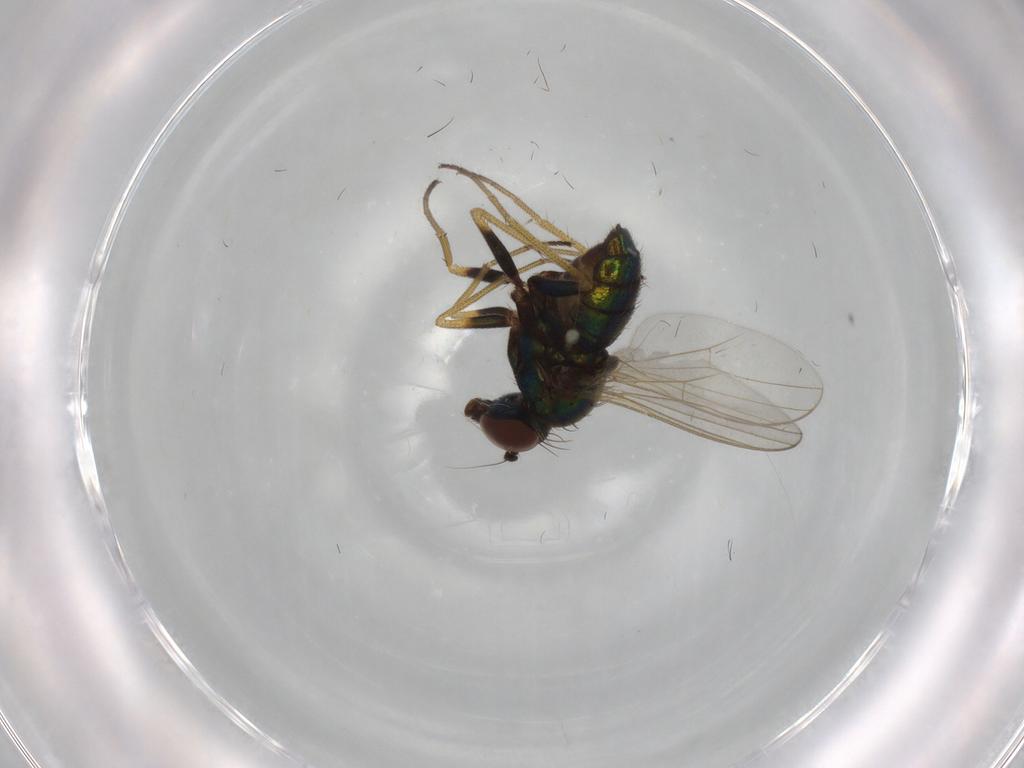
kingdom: Animalia
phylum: Arthropoda
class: Insecta
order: Diptera
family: Dolichopodidae
